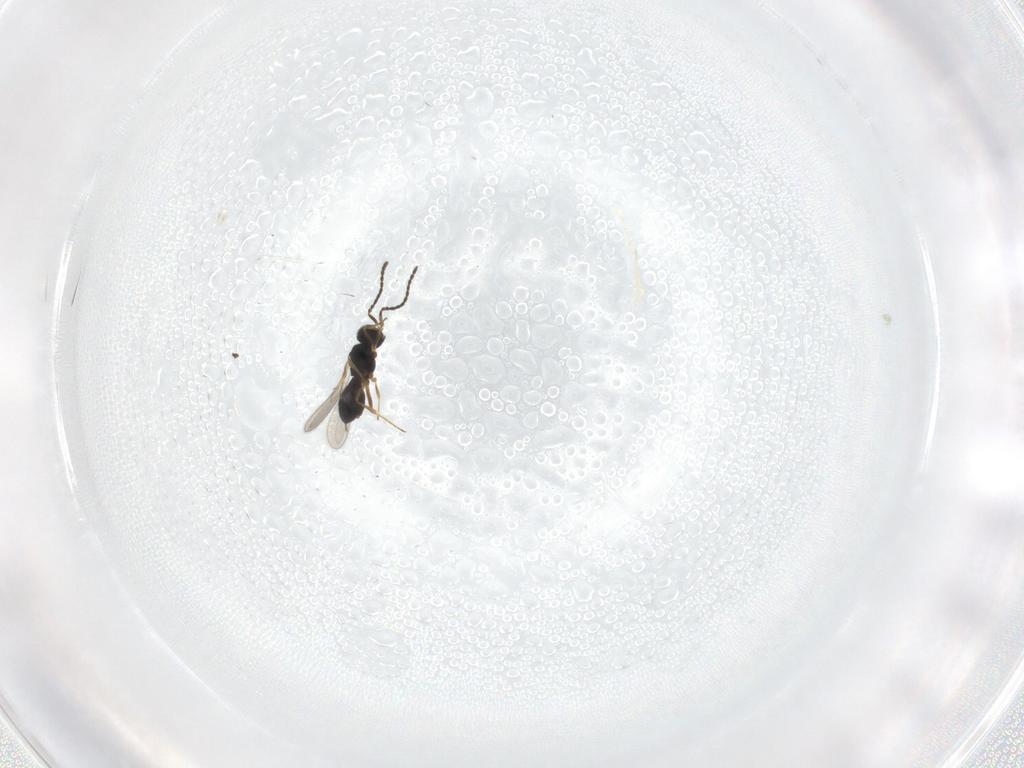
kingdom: Animalia
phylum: Arthropoda
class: Insecta
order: Hymenoptera
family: Scelionidae
